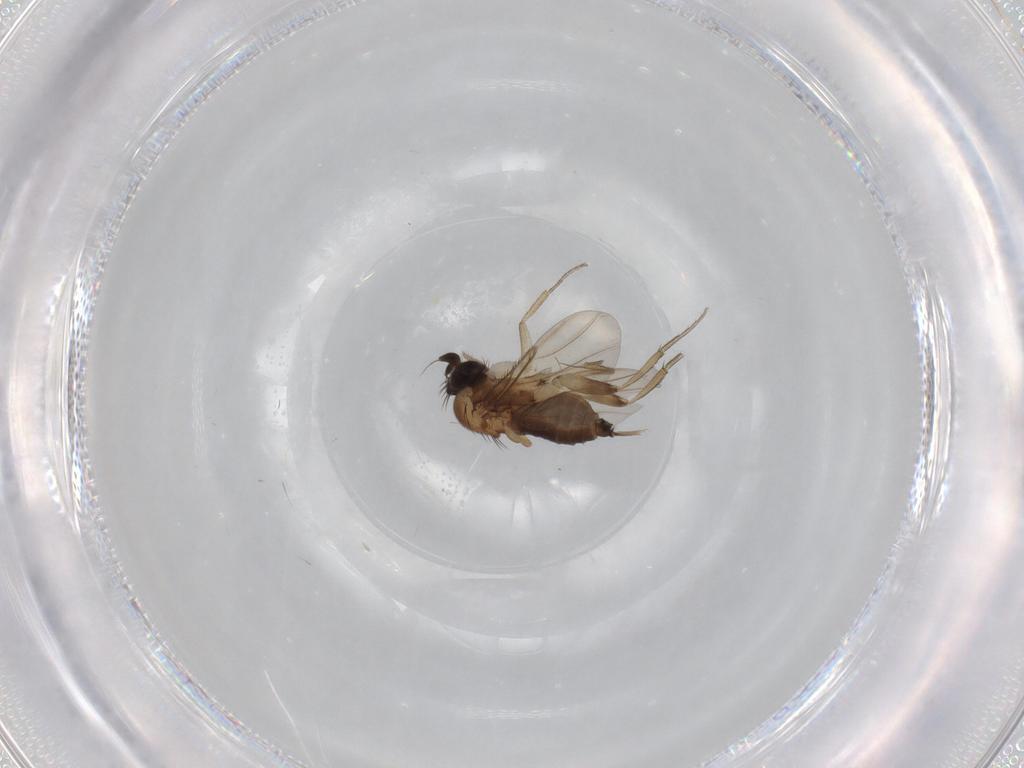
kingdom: Animalia
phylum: Arthropoda
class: Insecta
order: Diptera
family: Phoridae
